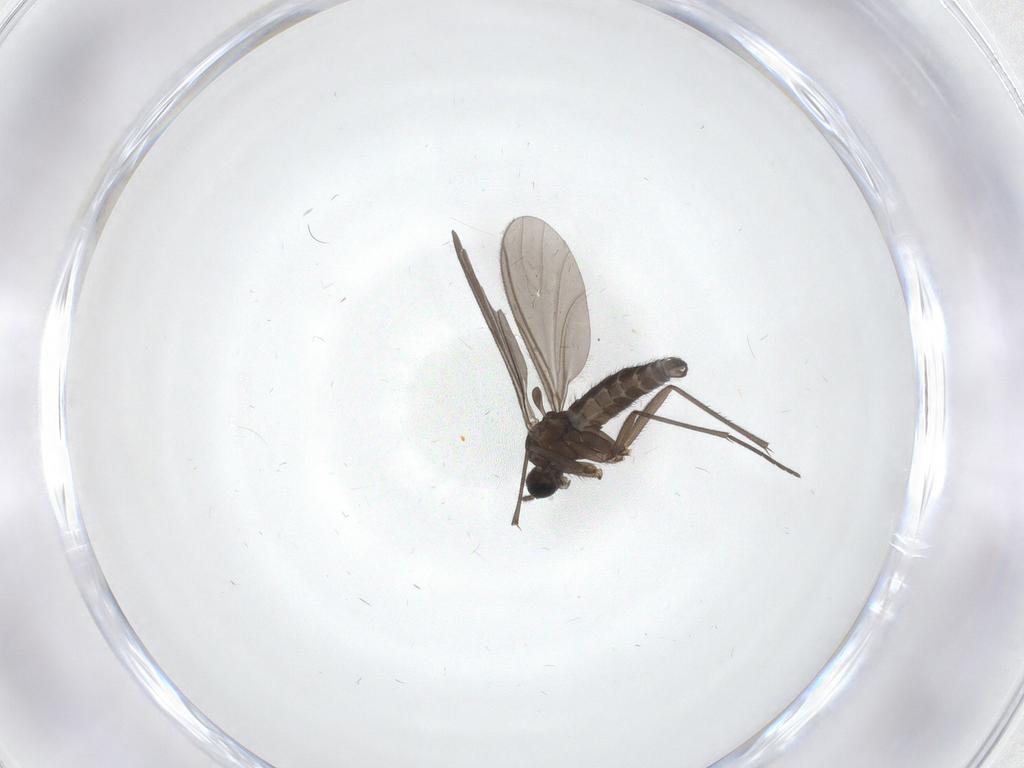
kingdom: Animalia
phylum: Arthropoda
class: Insecta
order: Diptera
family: Sciaridae
